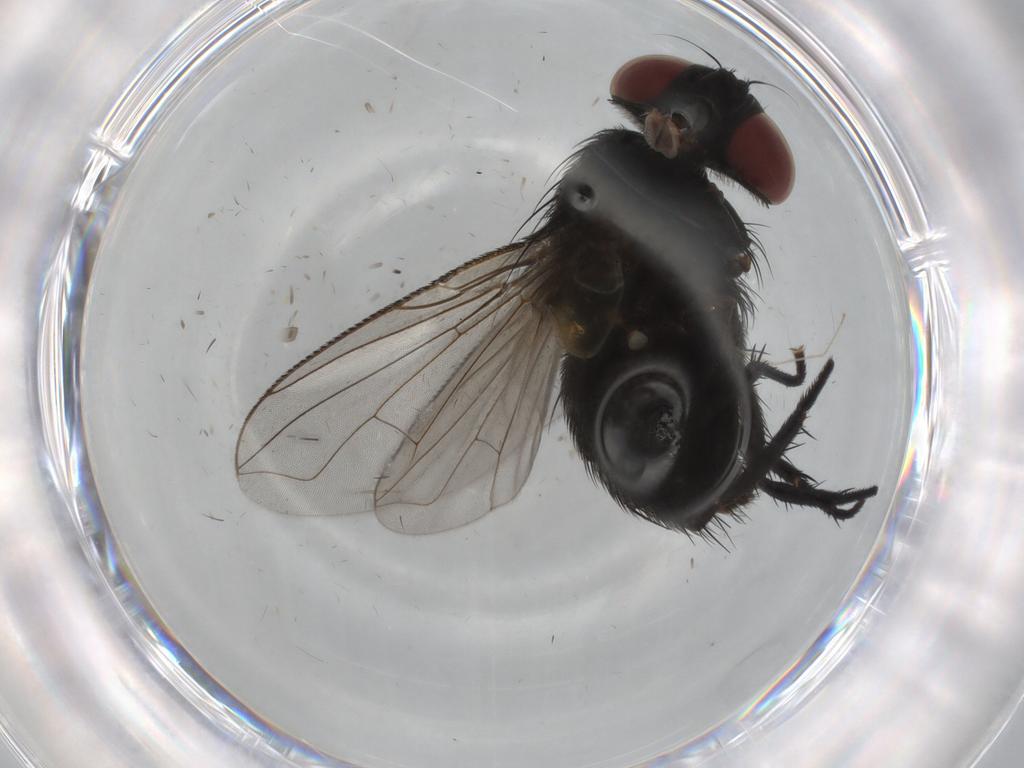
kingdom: Animalia
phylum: Arthropoda
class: Insecta
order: Diptera
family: Tachinidae
